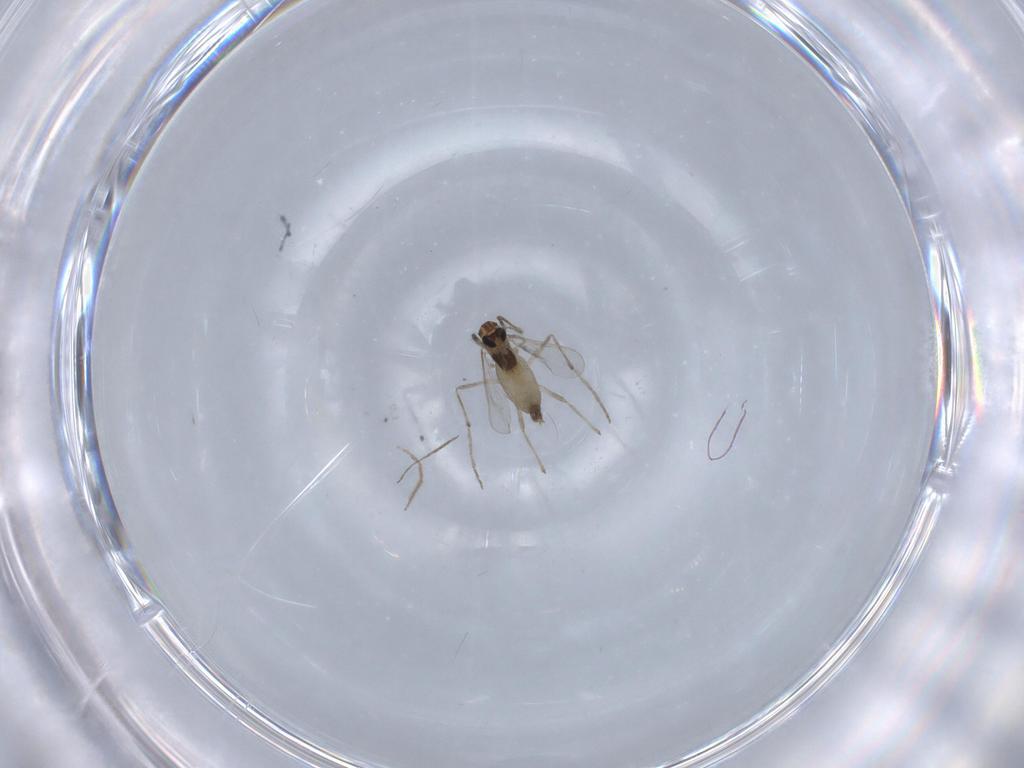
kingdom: Animalia
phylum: Arthropoda
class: Insecta
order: Diptera
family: Chironomidae
